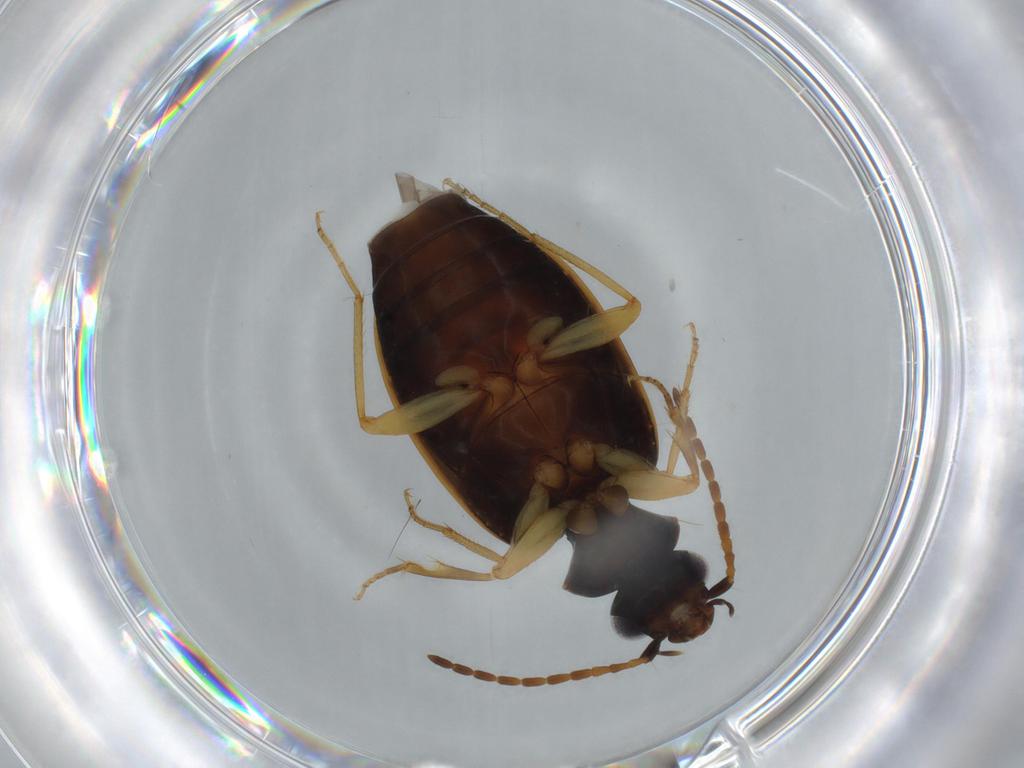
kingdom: Animalia
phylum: Arthropoda
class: Insecta
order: Coleoptera
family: Carabidae
